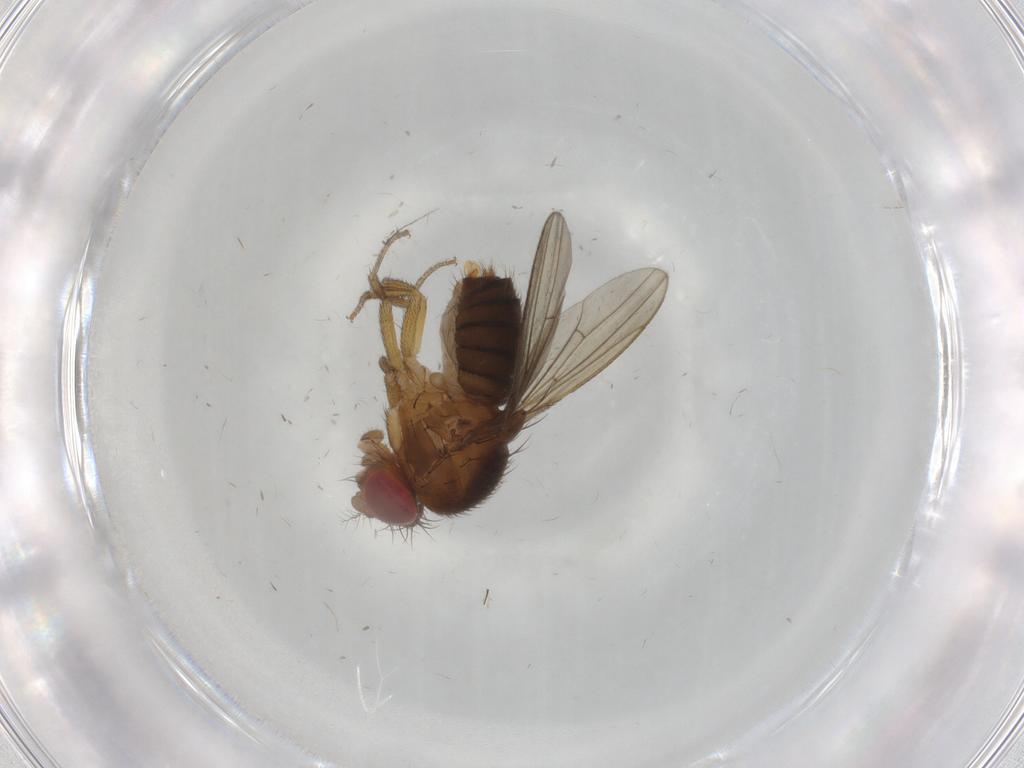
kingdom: Animalia
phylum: Arthropoda
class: Insecta
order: Diptera
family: Drosophilidae
